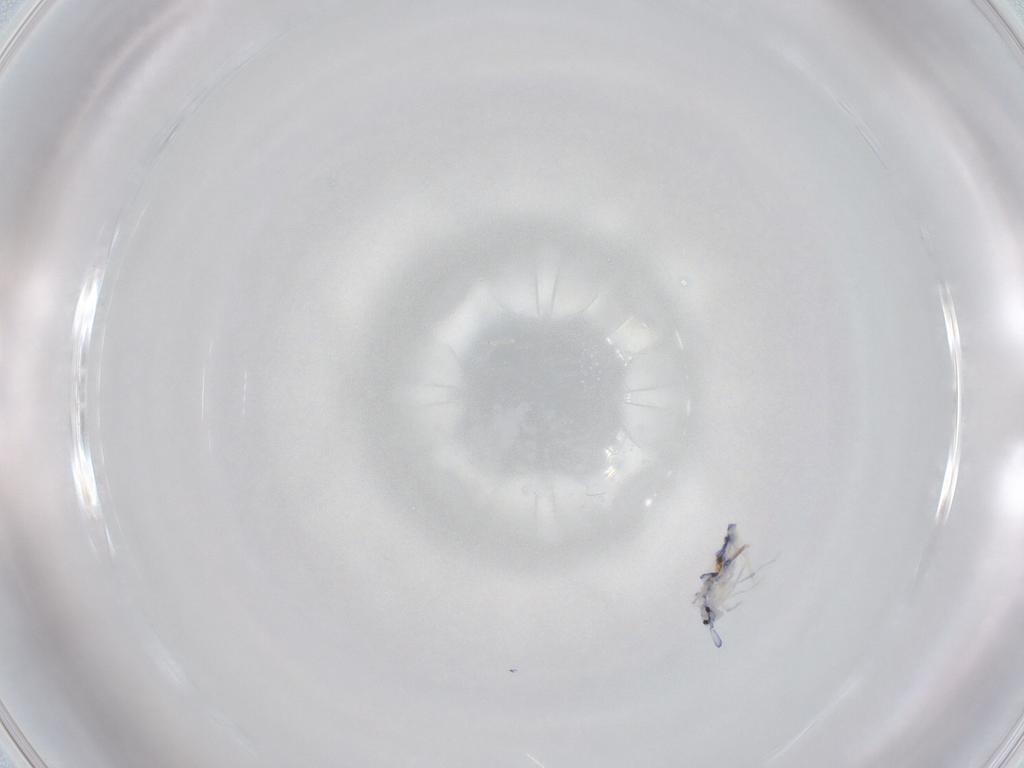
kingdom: Animalia
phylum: Arthropoda
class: Collembola
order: Entomobryomorpha
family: Entomobryidae
